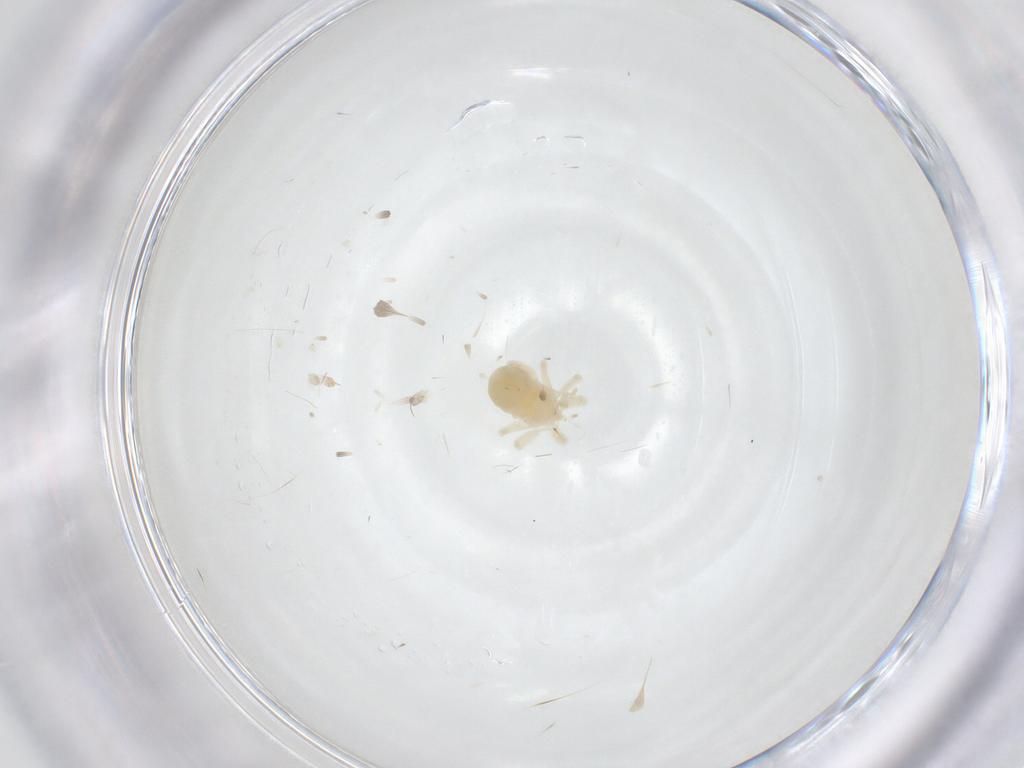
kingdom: Animalia
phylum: Arthropoda
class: Arachnida
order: Trombidiformes
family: Anystidae
